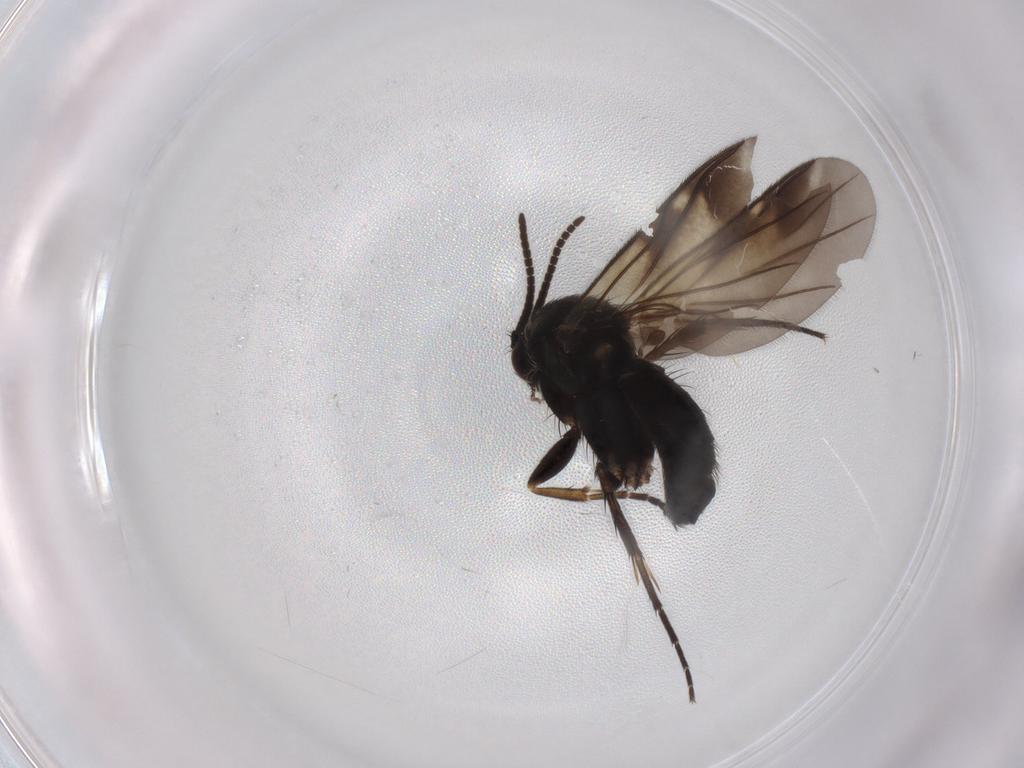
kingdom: Animalia
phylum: Arthropoda
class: Insecta
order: Diptera
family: Mycetophilidae
